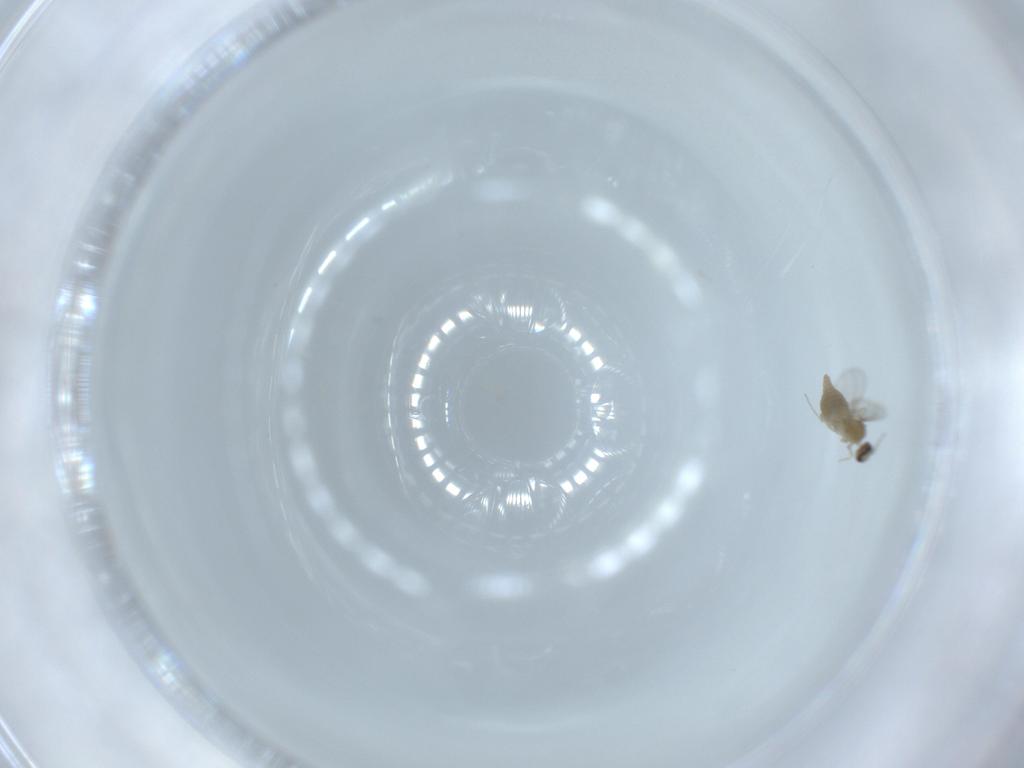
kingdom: Animalia
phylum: Arthropoda
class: Insecta
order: Diptera
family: Cecidomyiidae
